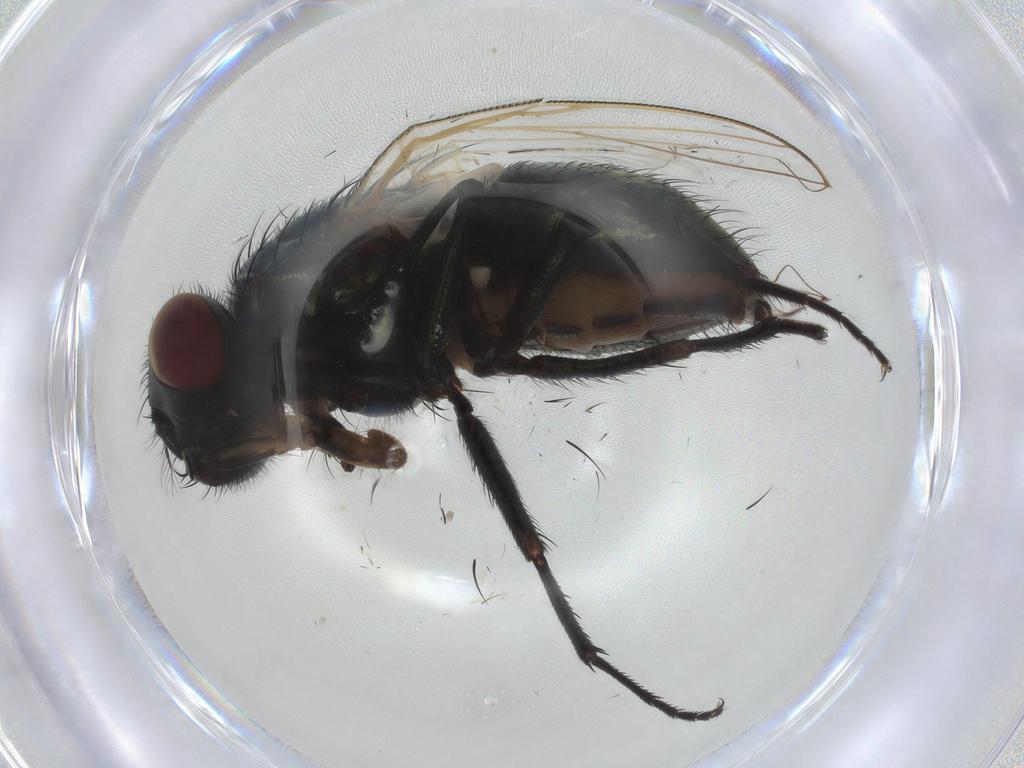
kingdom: Animalia
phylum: Arthropoda
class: Insecta
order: Diptera
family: Muscidae
